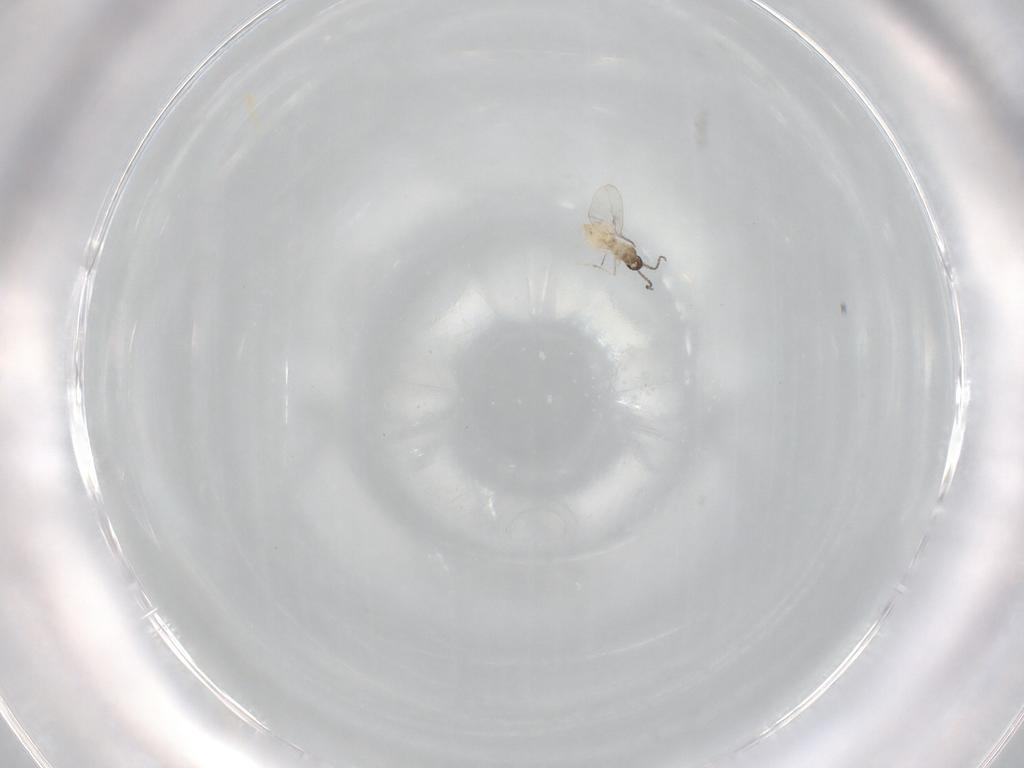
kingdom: Animalia
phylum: Arthropoda
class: Insecta
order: Diptera
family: Cecidomyiidae
